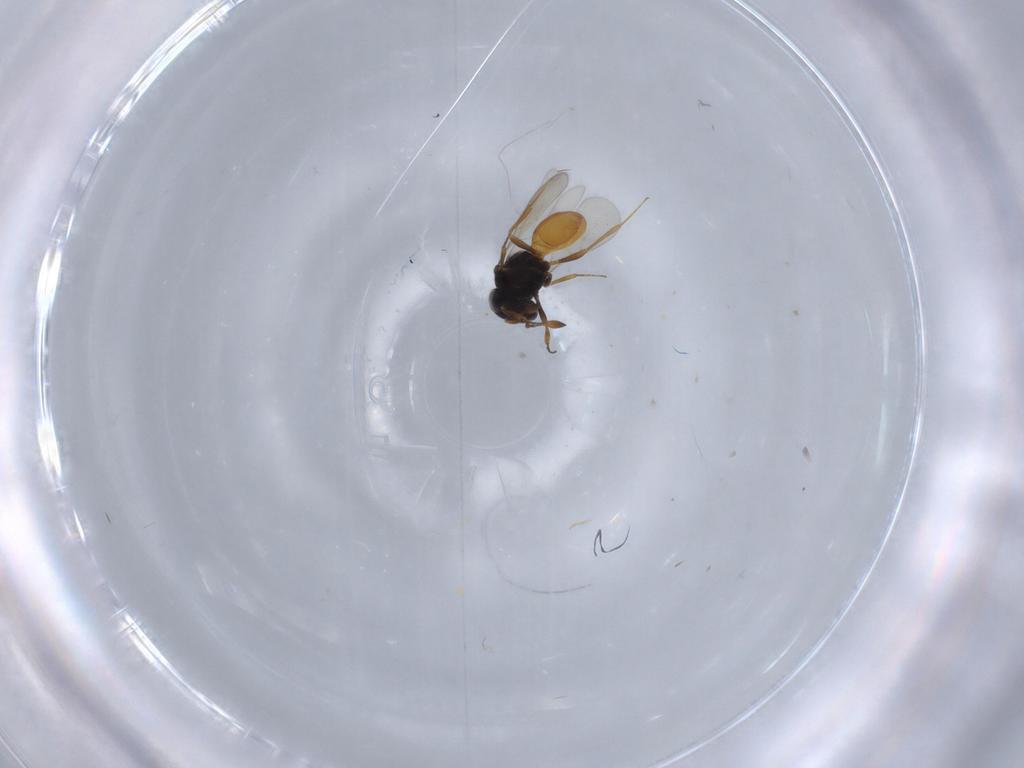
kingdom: Animalia
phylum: Arthropoda
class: Insecta
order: Hymenoptera
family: Scelionidae
